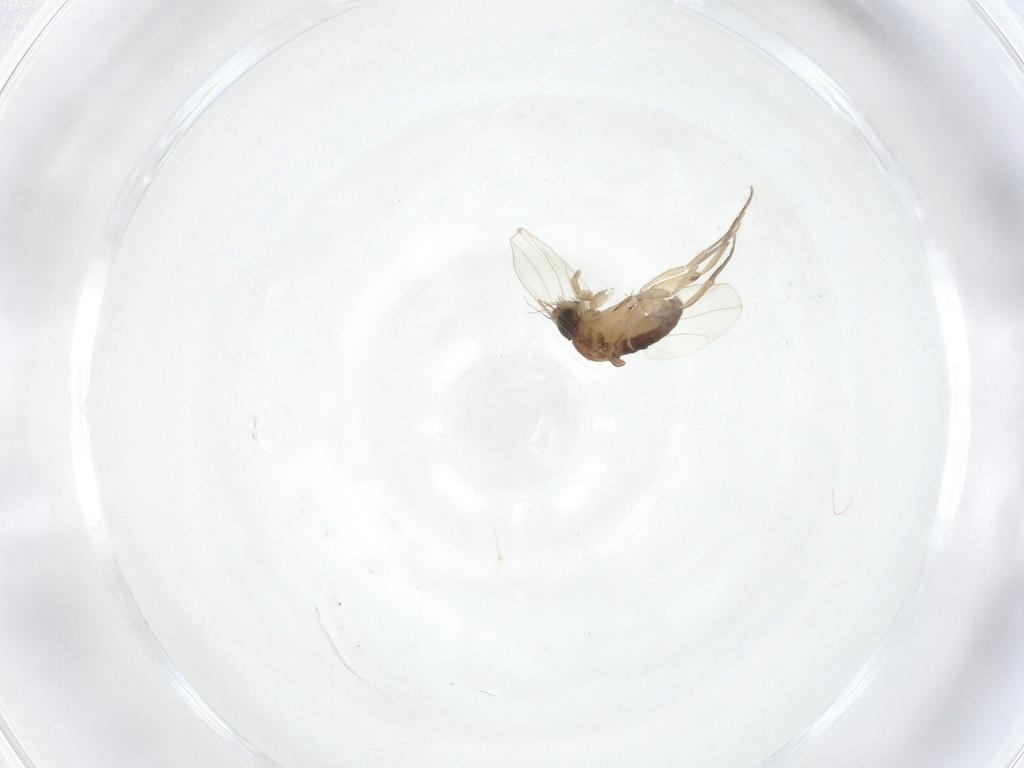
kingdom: Animalia
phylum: Arthropoda
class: Insecta
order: Diptera
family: Phoridae
